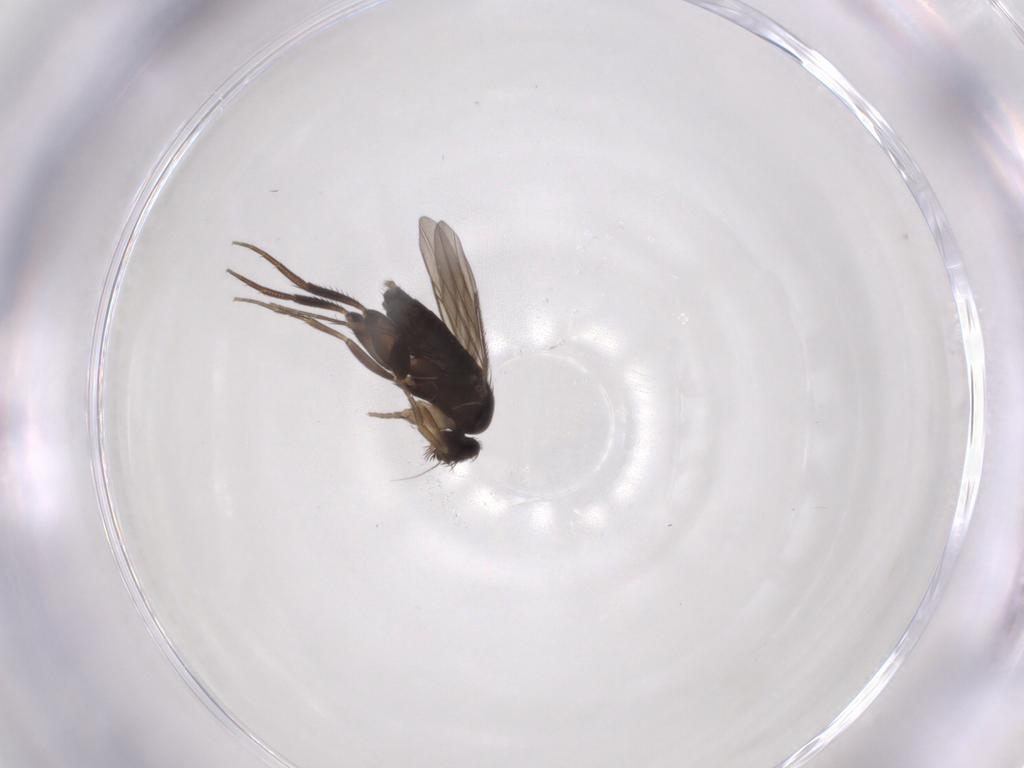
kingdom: Animalia
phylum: Arthropoda
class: Insecta
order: Diptera
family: Phoridae
